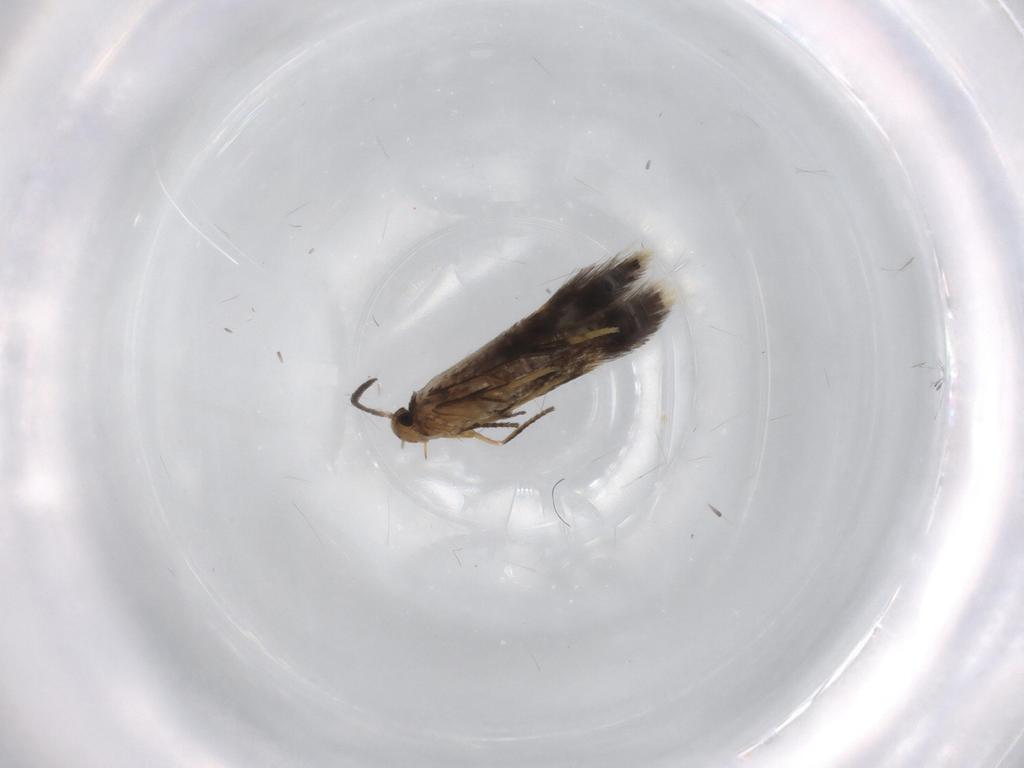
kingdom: Animalia
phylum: Arthropoda
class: Insecta
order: Lepidoptera
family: Heliozelidae
